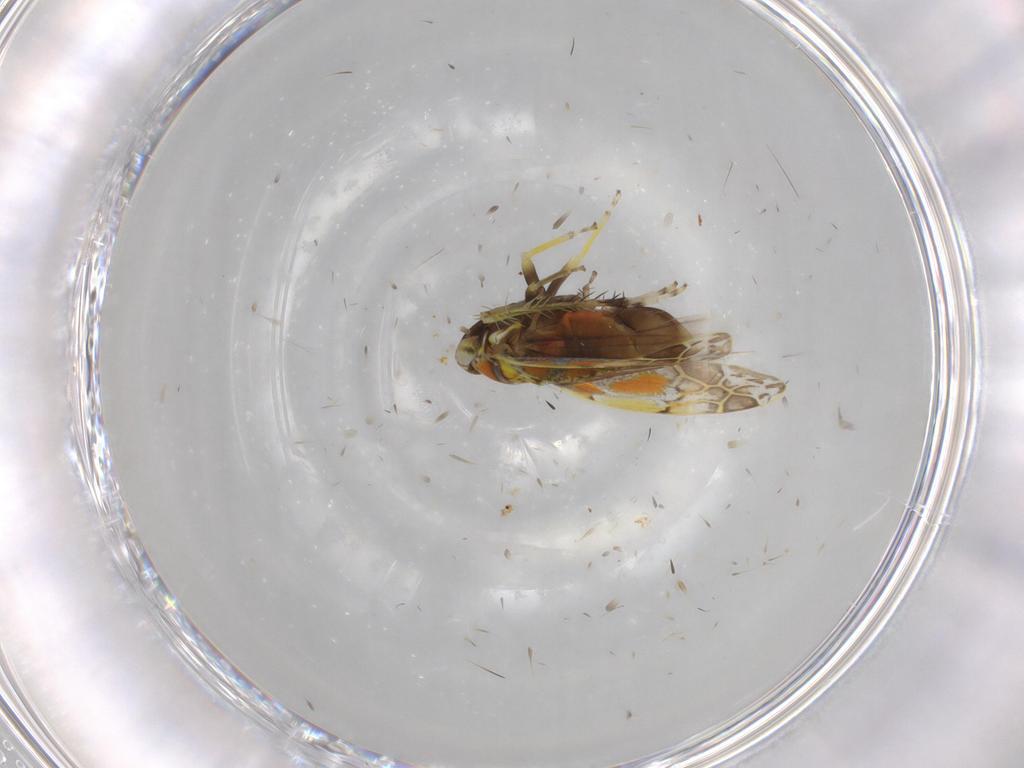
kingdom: Animalia
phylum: Arthropoda
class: Insecta
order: Hemiptera
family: Cicadellidae
